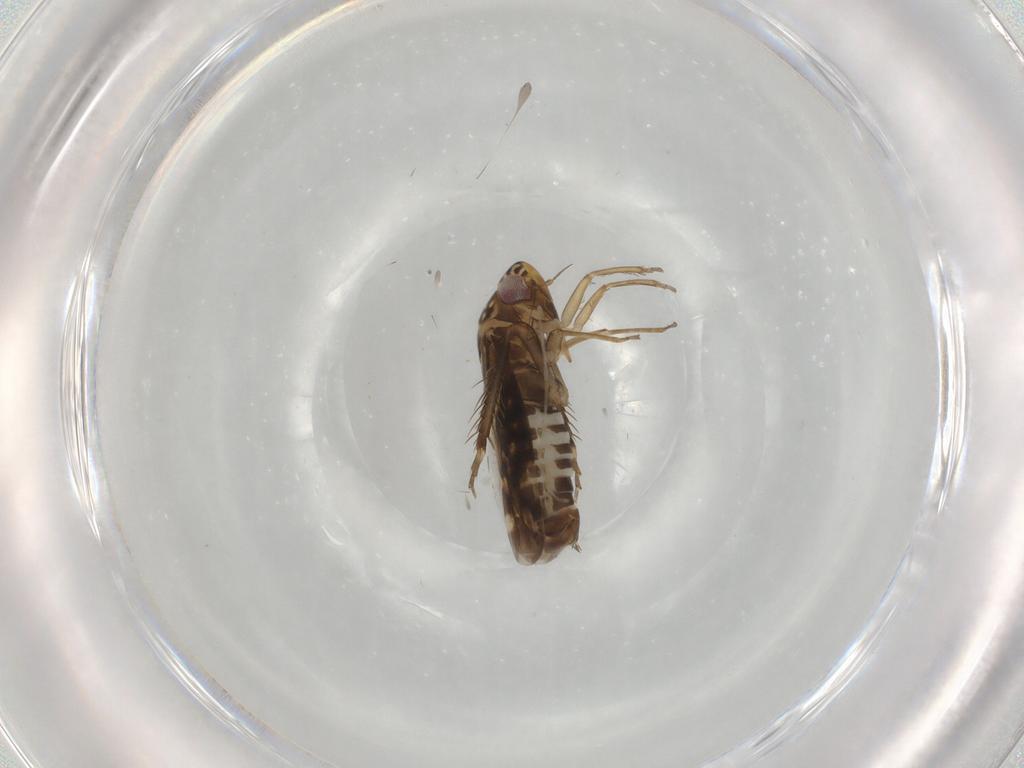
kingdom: Animalia
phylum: Arthropoda
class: Insecta
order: Hemiptera
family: Cicadellidae
